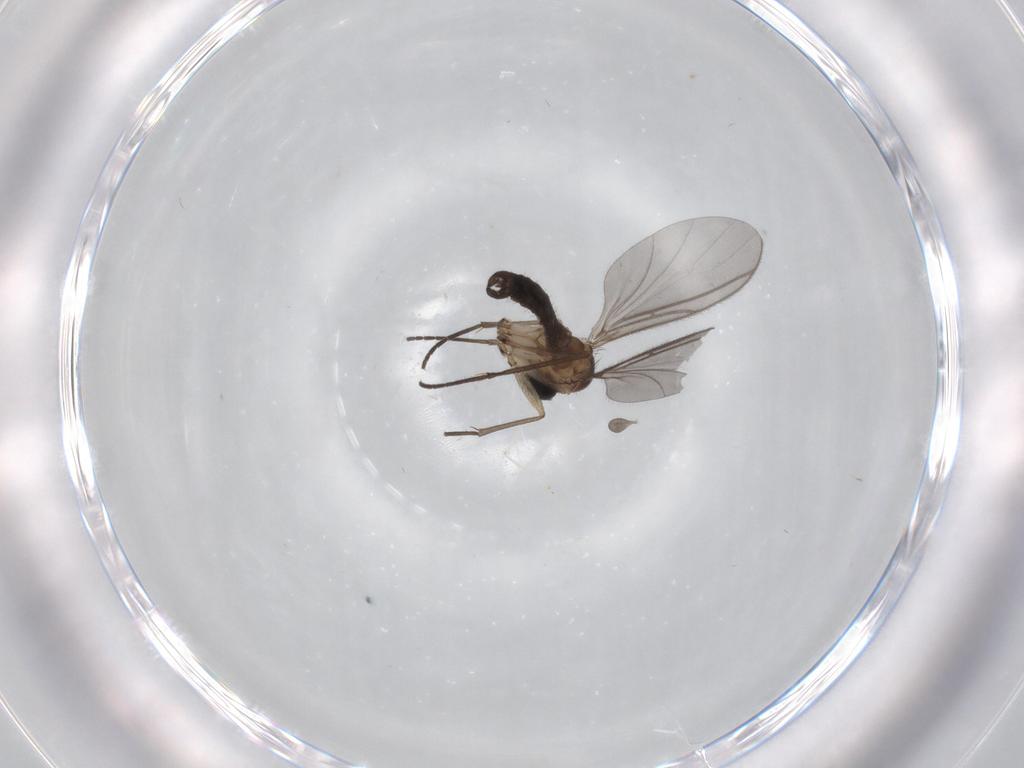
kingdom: Animalia
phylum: Arthropoda
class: Insecta
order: Diptera
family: Cecidomyiidae
